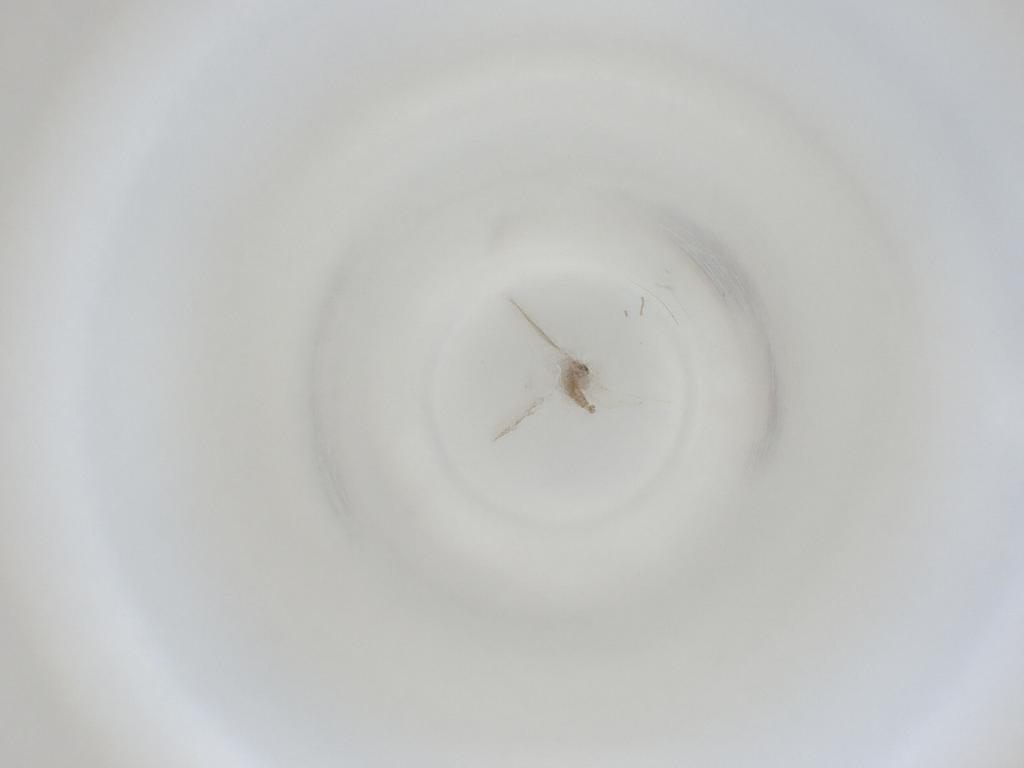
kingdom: Animalia
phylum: Arthropoda
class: Insecta
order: Diptera
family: Cecidomyiidae
